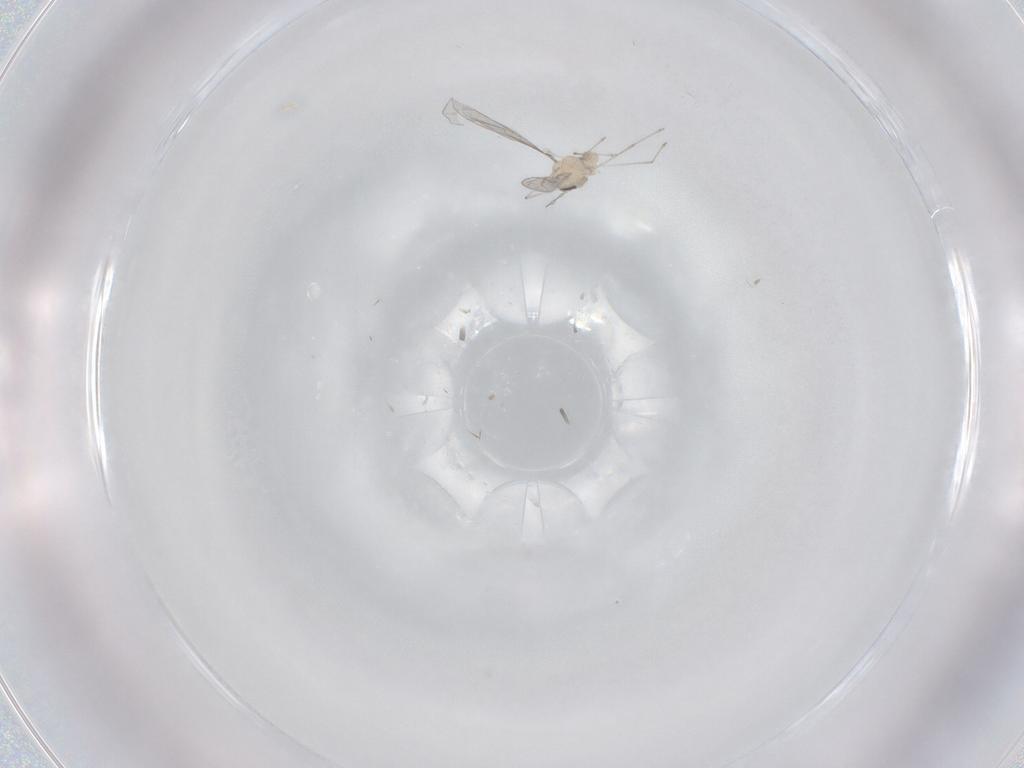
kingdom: Animalia
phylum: Arthropoda
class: Insecta
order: Diptera
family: Cecidomyiidae
